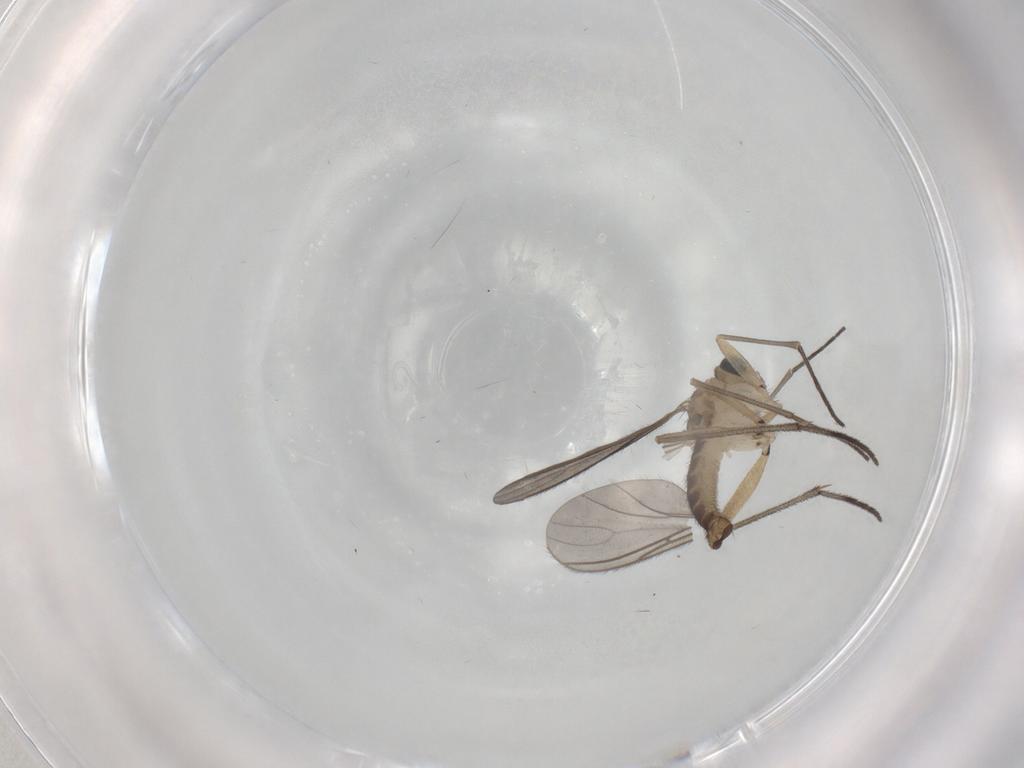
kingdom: Animalia
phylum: Arthropoda
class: Insecta
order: Diptera
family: Sciaridae
